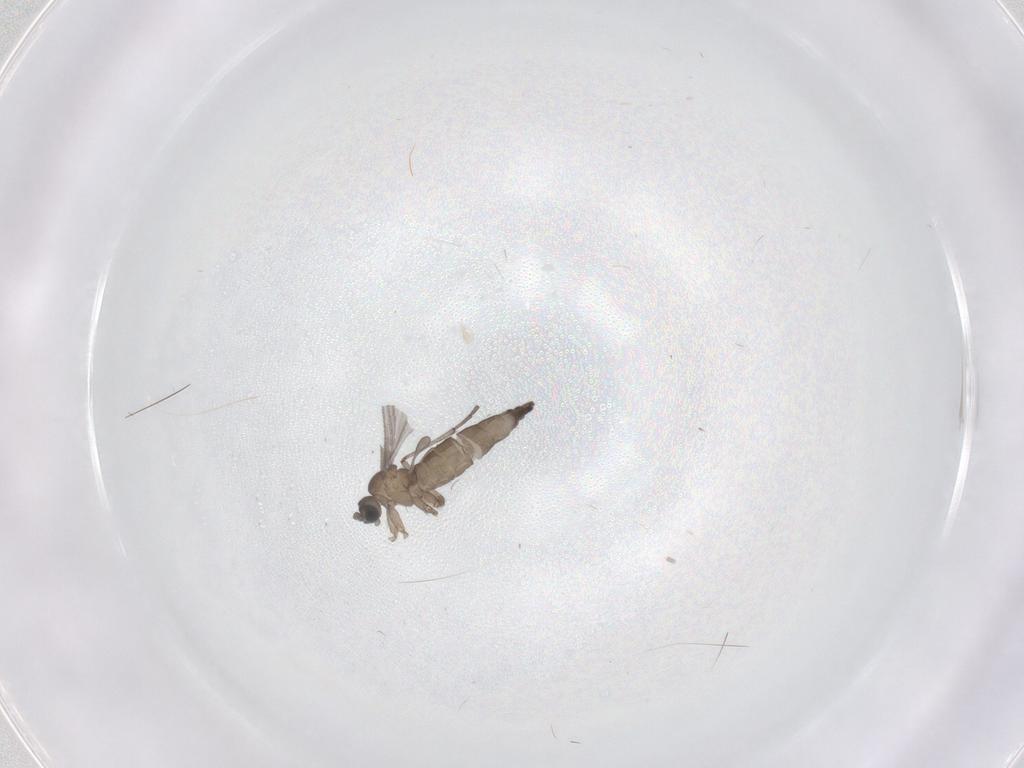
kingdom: Animalia
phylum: Arthropoda
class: Insecta
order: Diptera
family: Sciaridae
